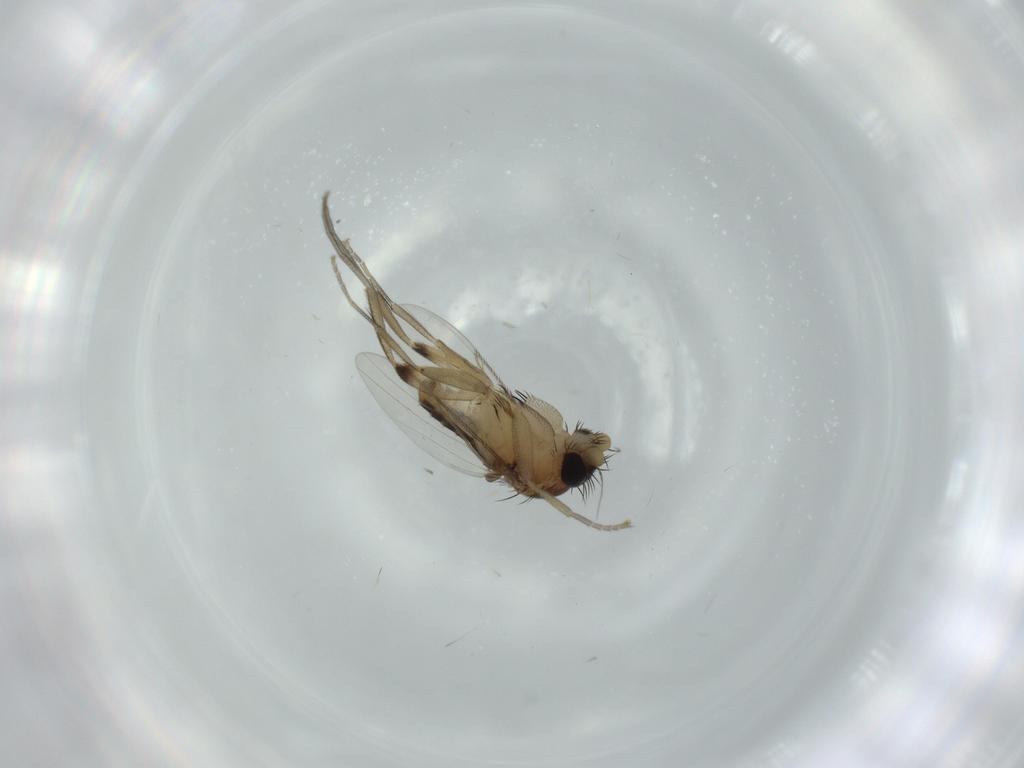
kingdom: Animalia
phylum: Arthropoda
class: Insecta
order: Diptera
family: Phoridae
